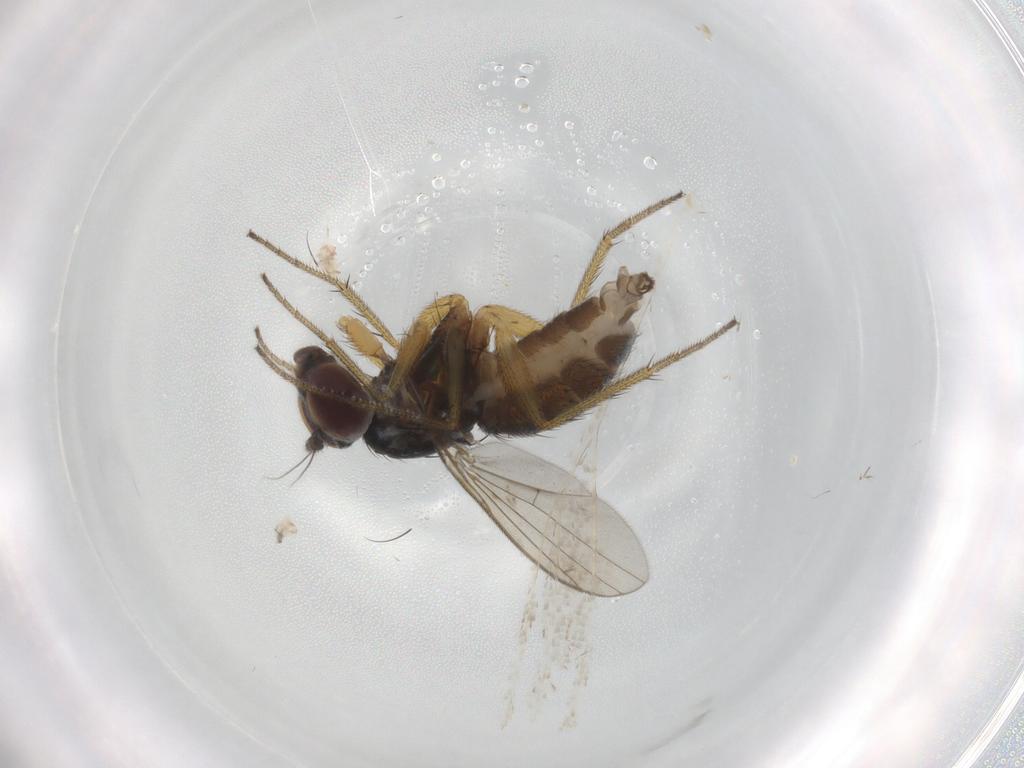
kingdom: Animalia
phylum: Arthropoda
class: Insecta
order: Diptera
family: Dolichopodidae
